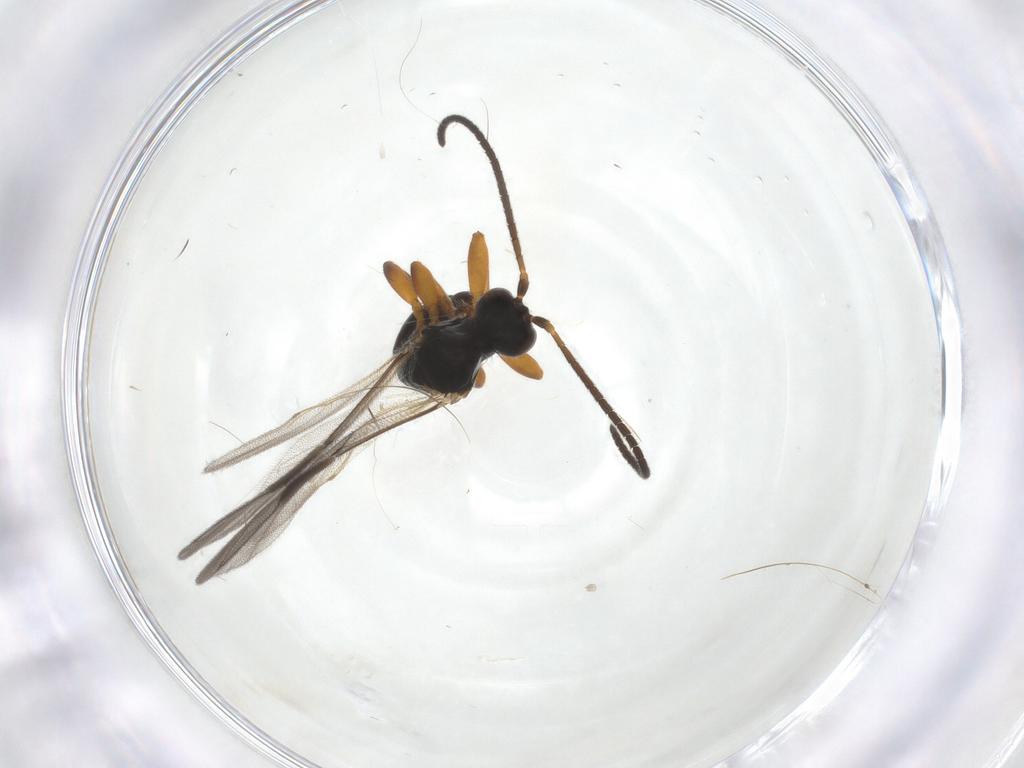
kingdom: Animalia
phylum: Arthropoda
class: Insecta
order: Hymenoptera
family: Braconidae
